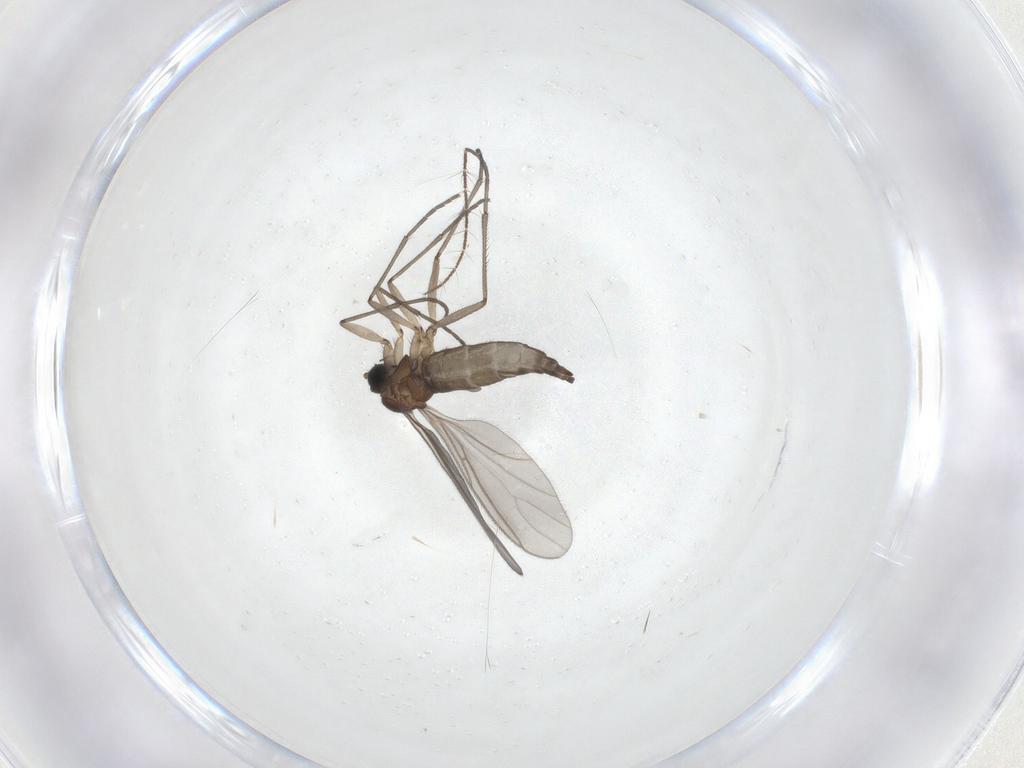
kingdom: Animalia
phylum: Arthropoda
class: Insecta
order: Diptera
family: Culicidae
